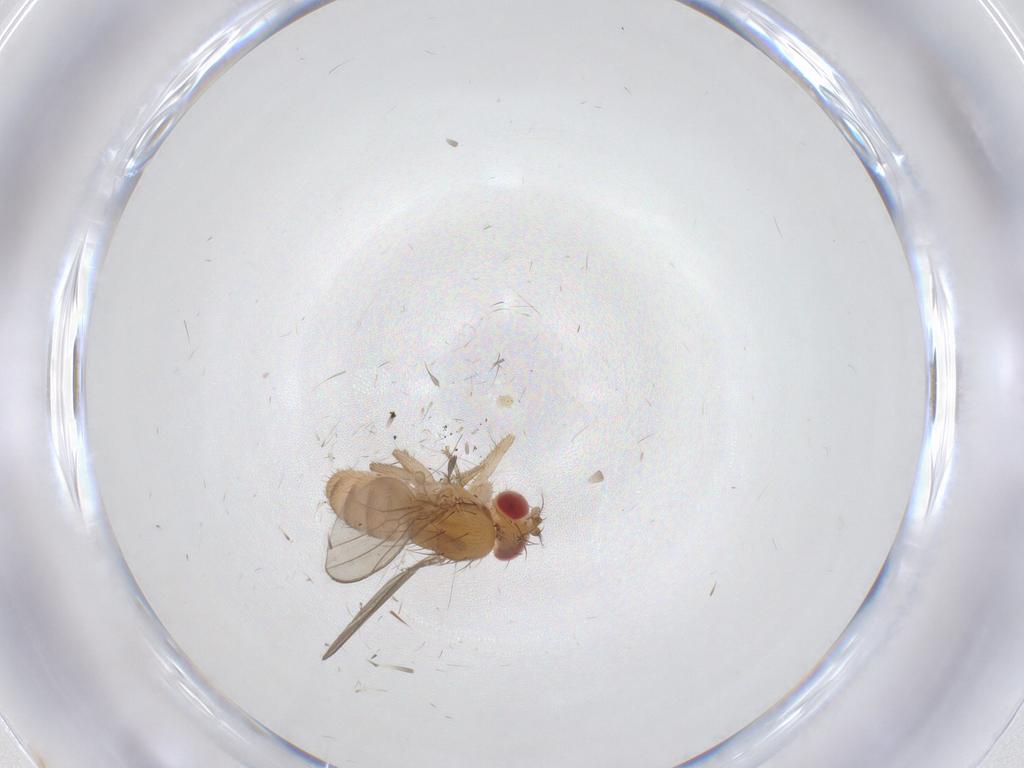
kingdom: Animalia
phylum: Arthropoda
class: Insecta
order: Diptera
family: Drosophilidae
